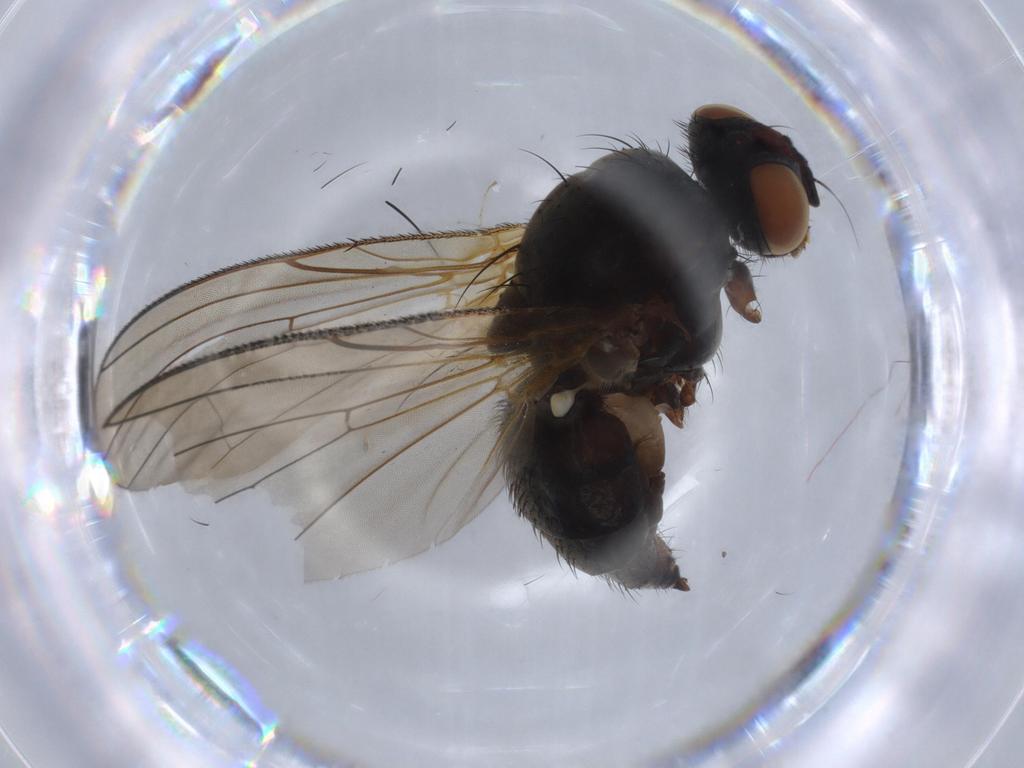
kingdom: Animalia
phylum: Arthropoda
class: Insecta
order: Diptera
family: Anthomyiidae
